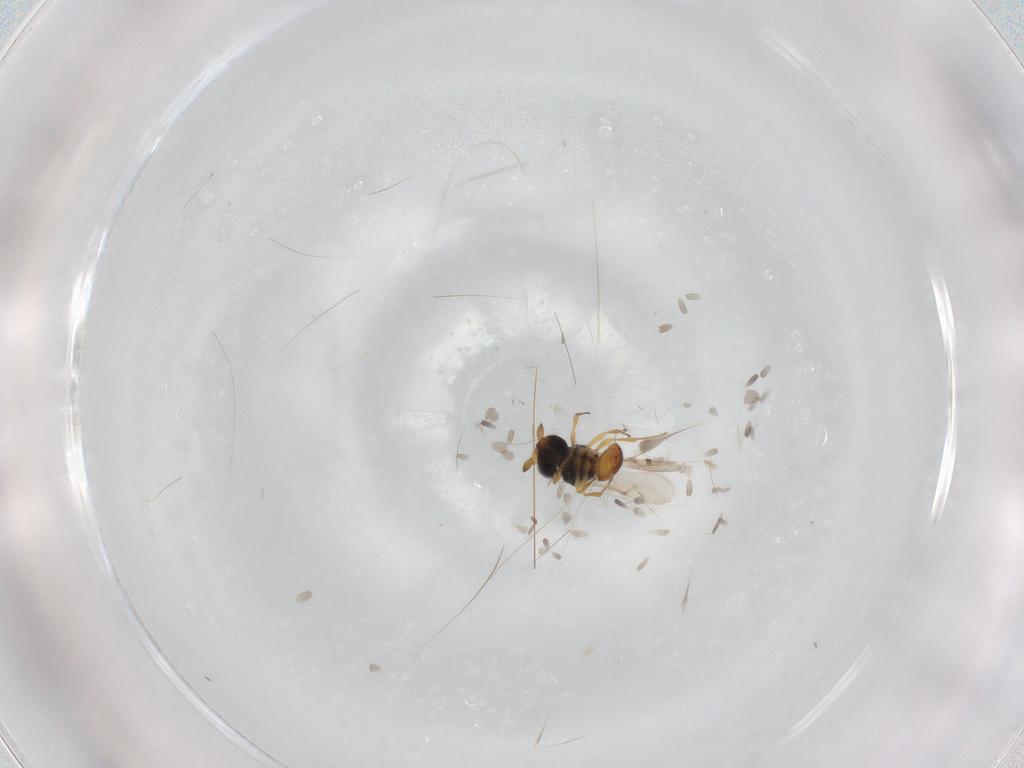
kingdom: Animalia
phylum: Arthropoda
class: Insecta
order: Hymenoptera
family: Scelionidae
